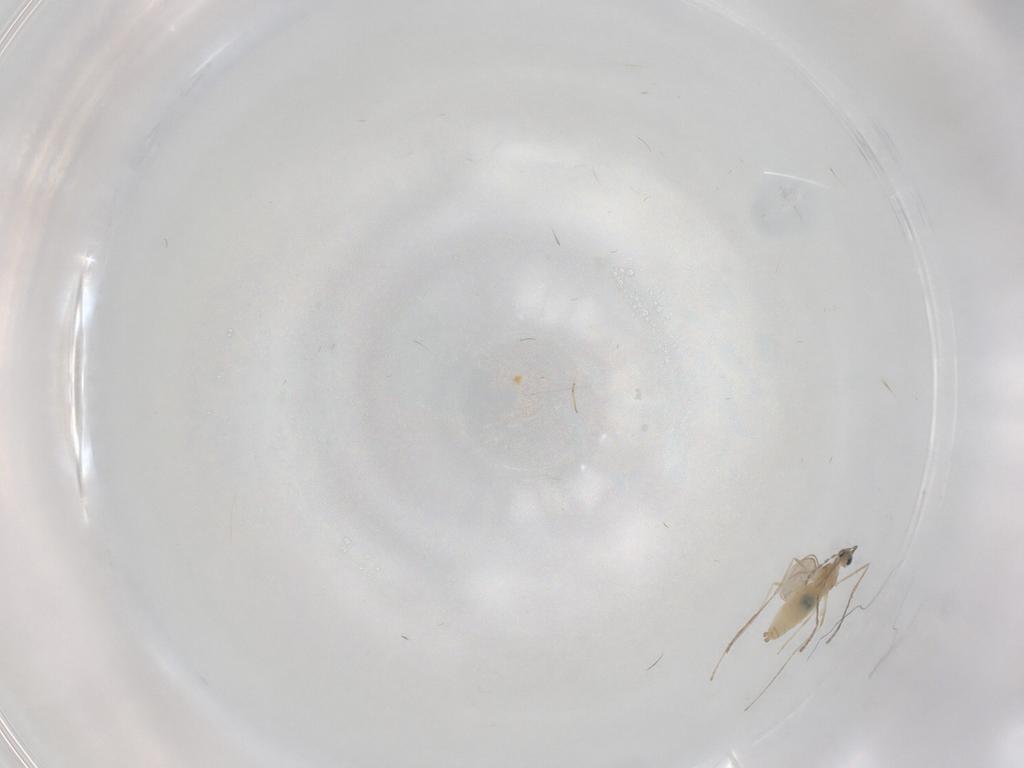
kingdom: Animalia
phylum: Arthropoda
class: Insecta
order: Diptera
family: Cecidomyiidae
